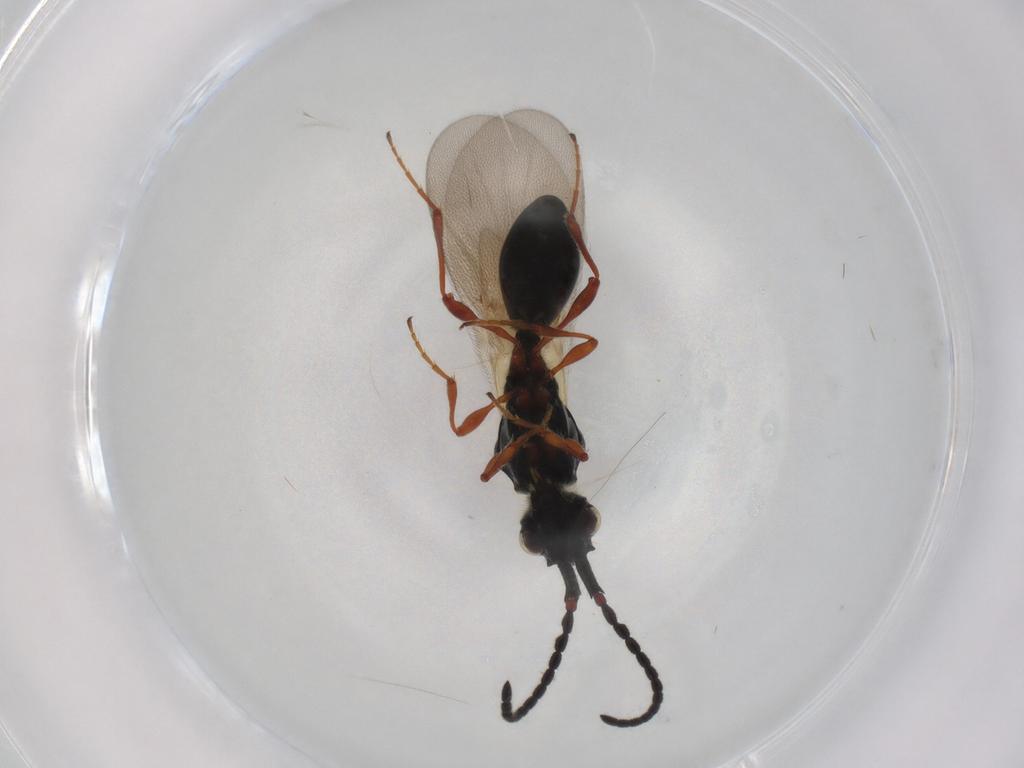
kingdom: Animalia
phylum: Arthropoda
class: Insecta
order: Hymenoptera
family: Diapriidae
